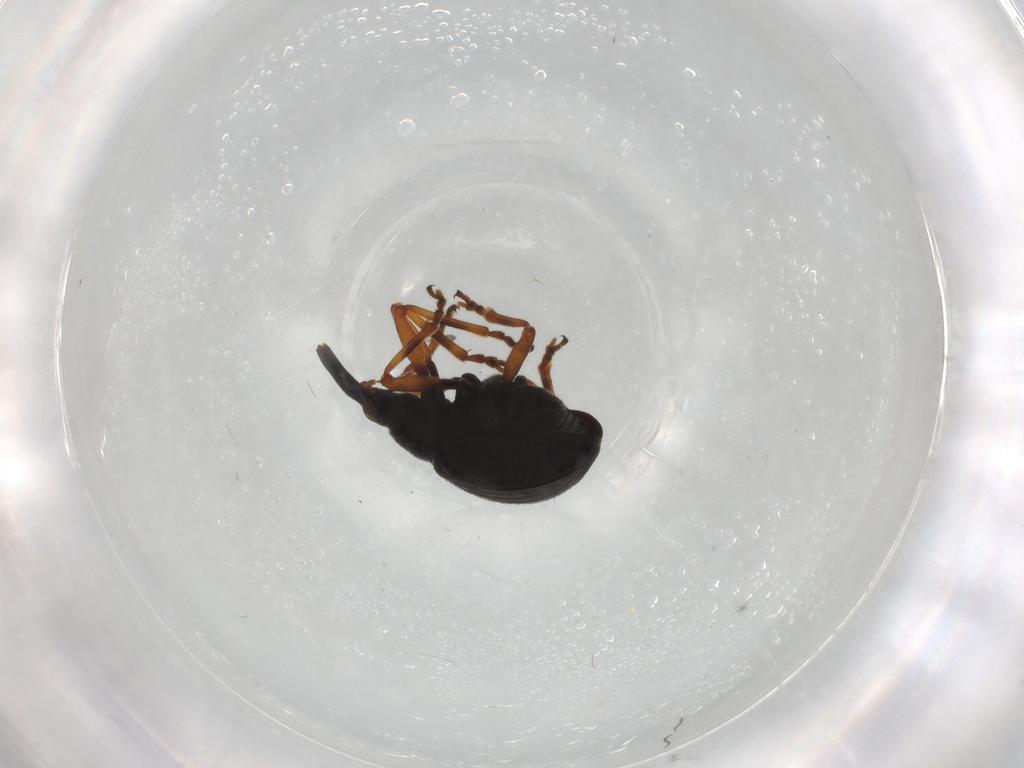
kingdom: Animalia
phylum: Arthropoda
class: Insecta
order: Coleoptera
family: Brentidae
